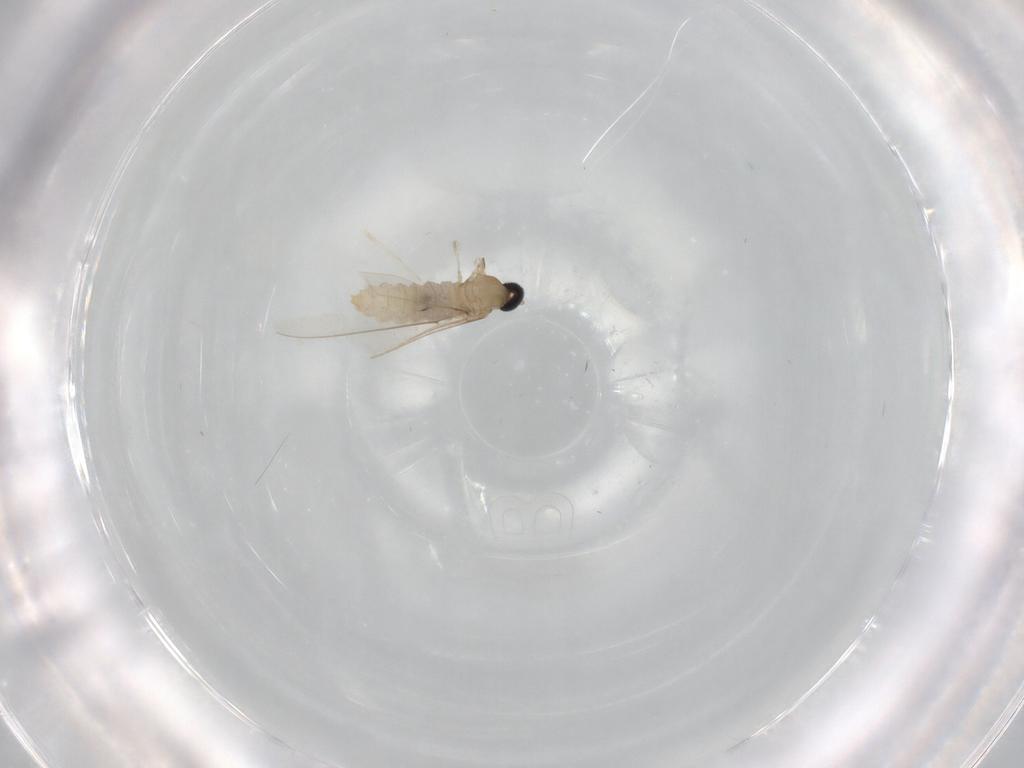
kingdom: Animalia
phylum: Arthropoda
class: Insecta
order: Diptera
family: Cecidomyiidae
